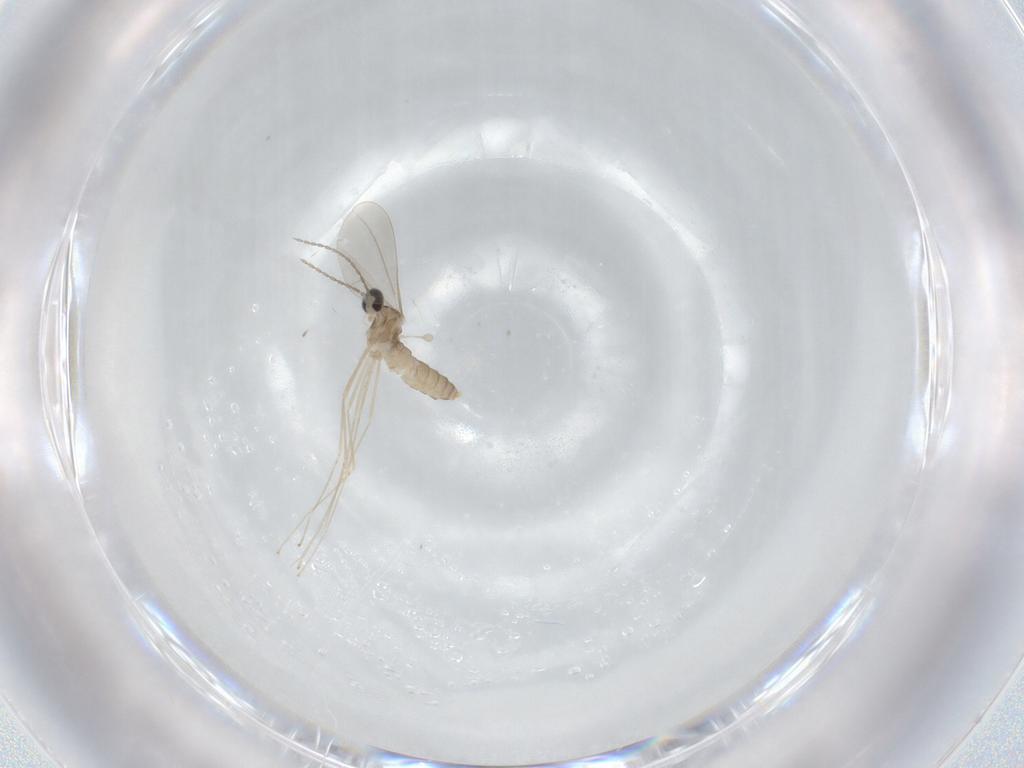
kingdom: Animalia
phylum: Arthropoda
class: Insecta
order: Diptera
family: Cecidomyiidae
